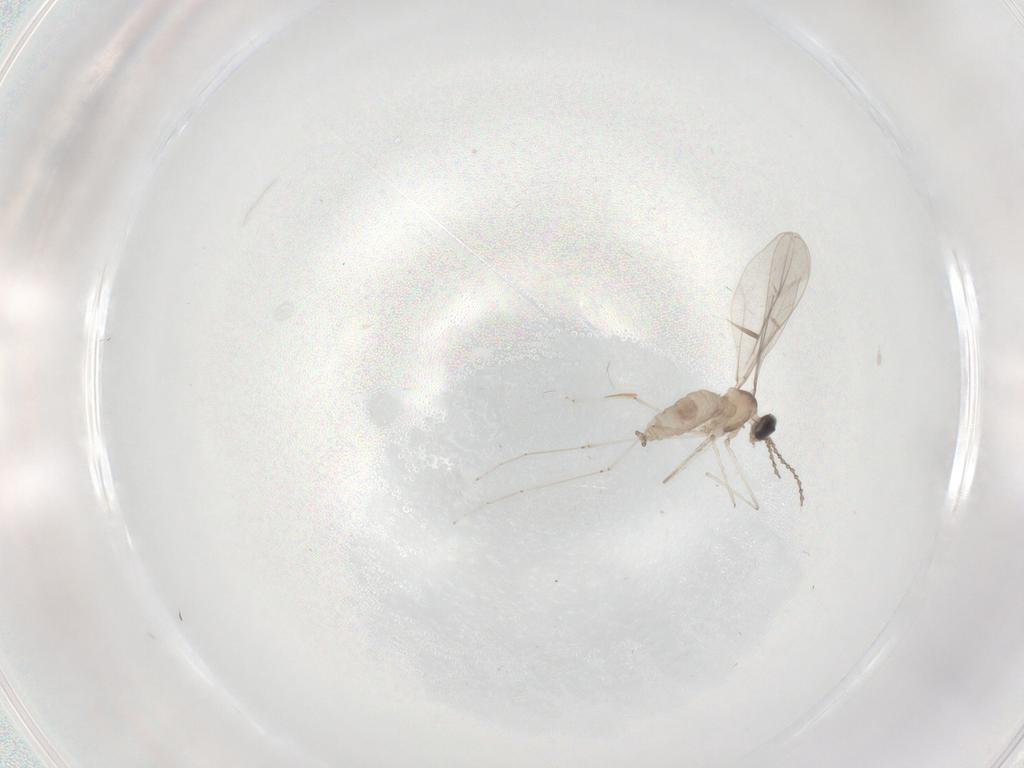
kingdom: Animalia
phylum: Arthropoda
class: Insecta
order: Diptera
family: Cecidomyiidae
